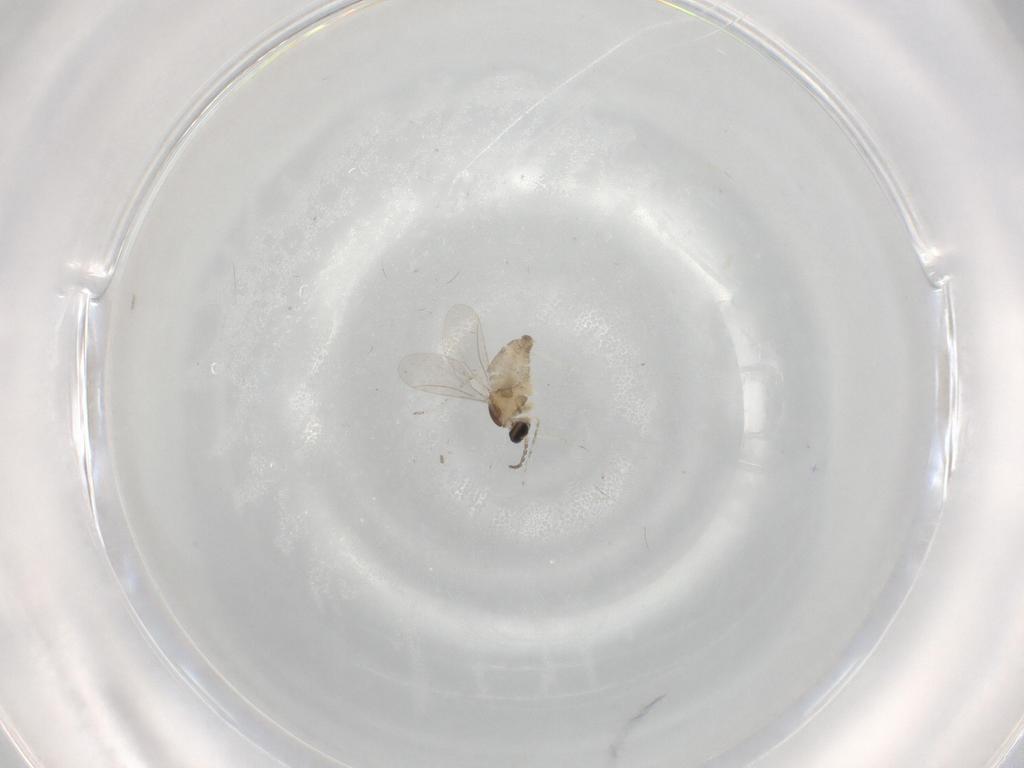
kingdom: Animalia
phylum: Arthropoda
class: Insecta
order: Diptera
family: Cecidomyiidae
